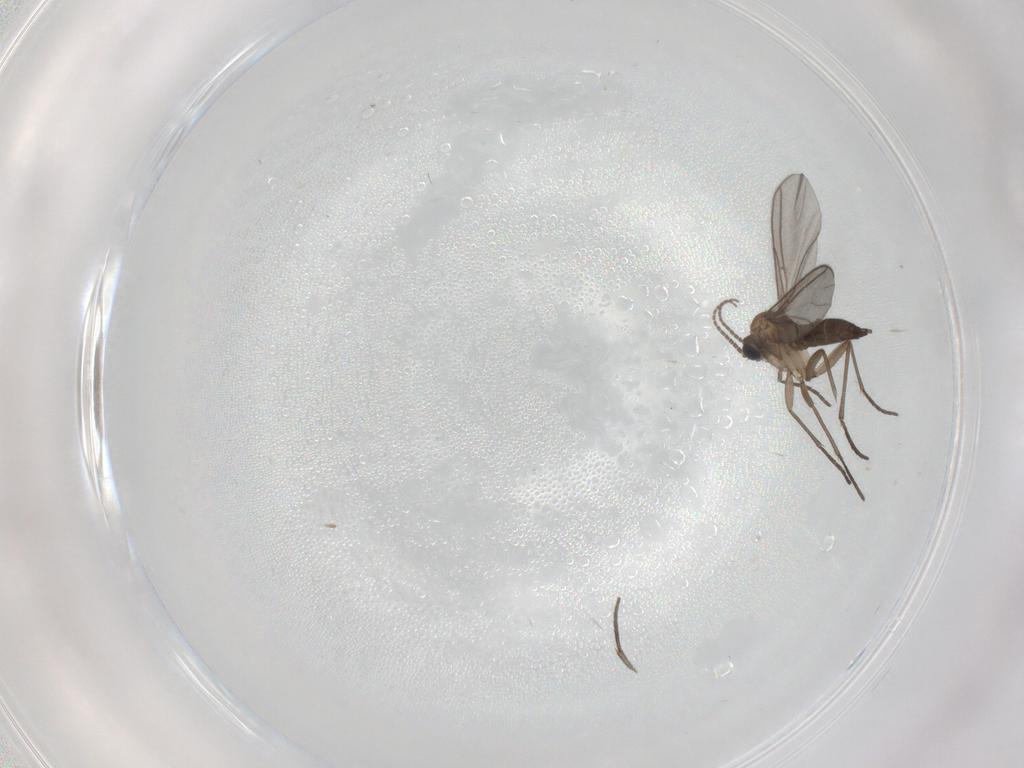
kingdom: Animalia
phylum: Arthropoda
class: Insecta
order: Diptera
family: Sciaridae
